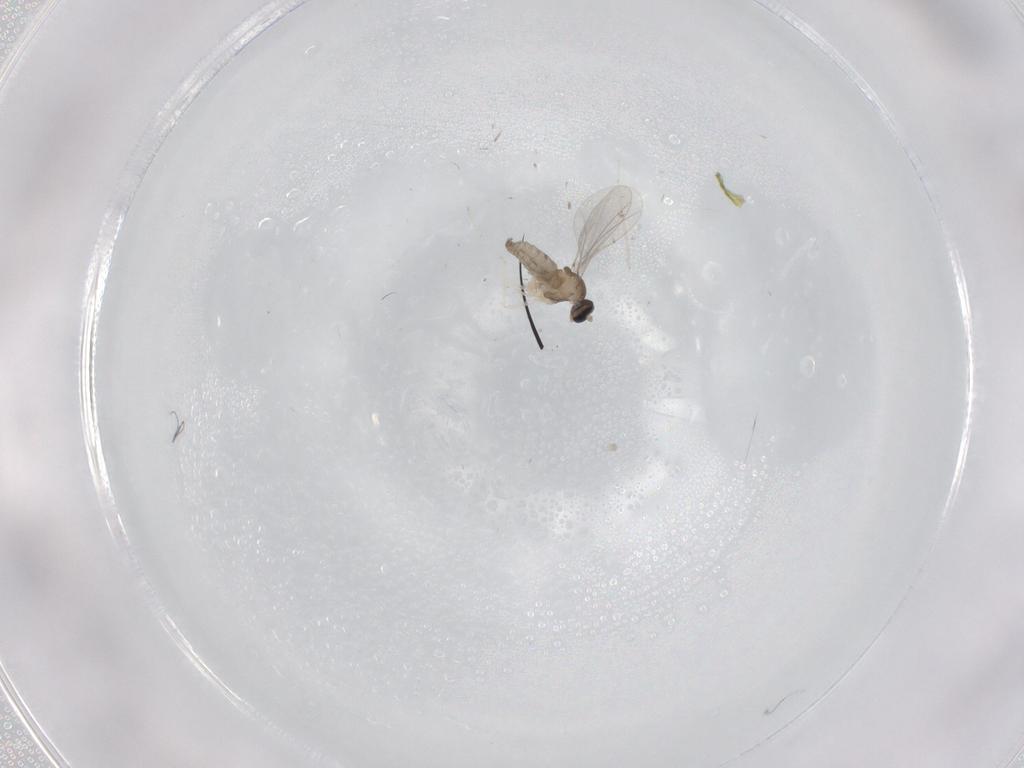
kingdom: Animalia
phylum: Arthropoda
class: Insecta
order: Diptera
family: Cecidomyiidae
